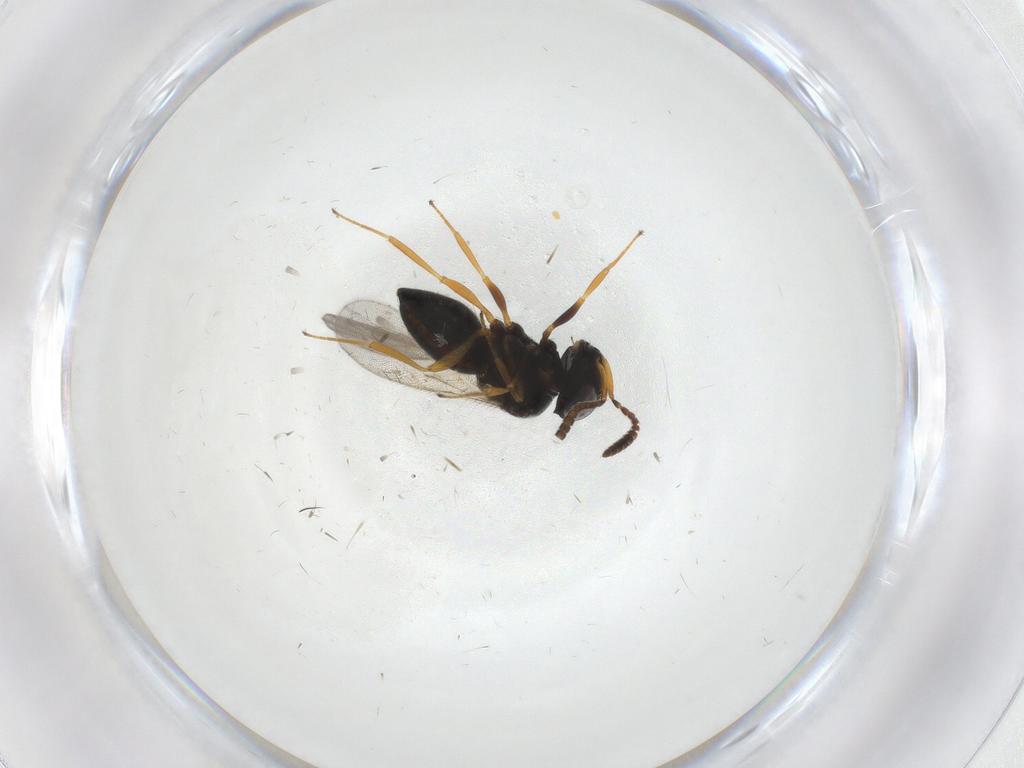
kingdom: Animalia
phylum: Arthropoda
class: Insecta
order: Hymenoptera
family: Scelionidae
